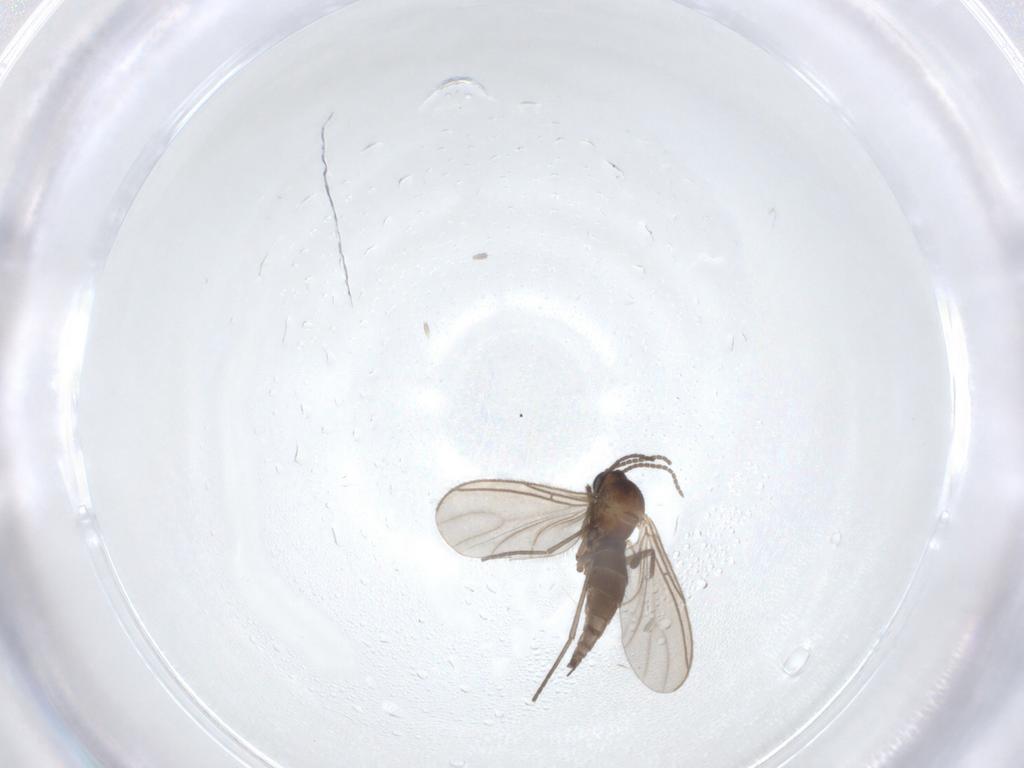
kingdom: Animalia
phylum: Arthropoda
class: Insecta
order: Diptera
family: Sciaridae
